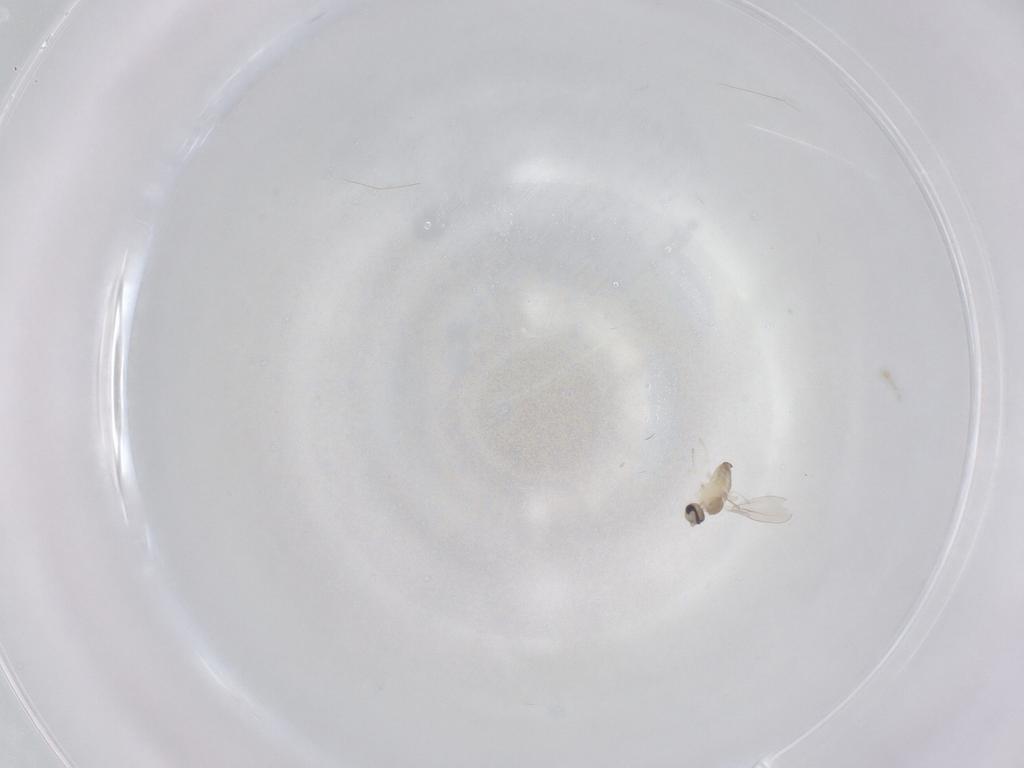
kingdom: Animalia
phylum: Arthropoda
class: Insecta
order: Diptera
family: Cecidomyiidae
